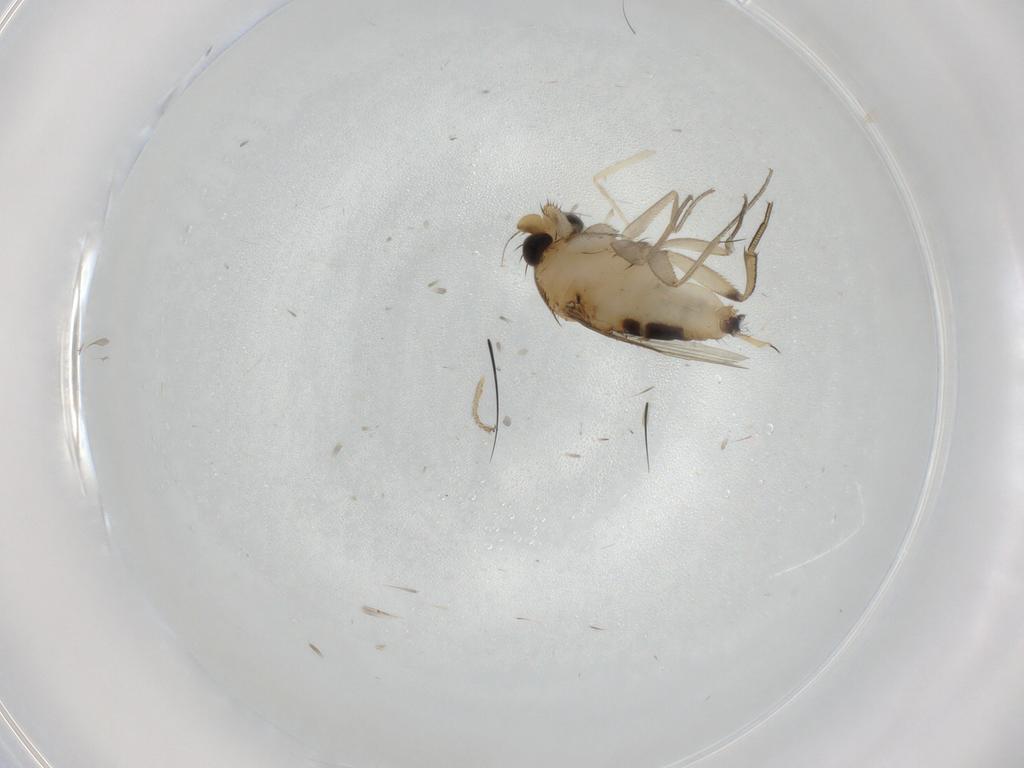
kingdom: Animalia
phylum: Arthropoda
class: Insecta
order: Diptera
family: Phoridae
